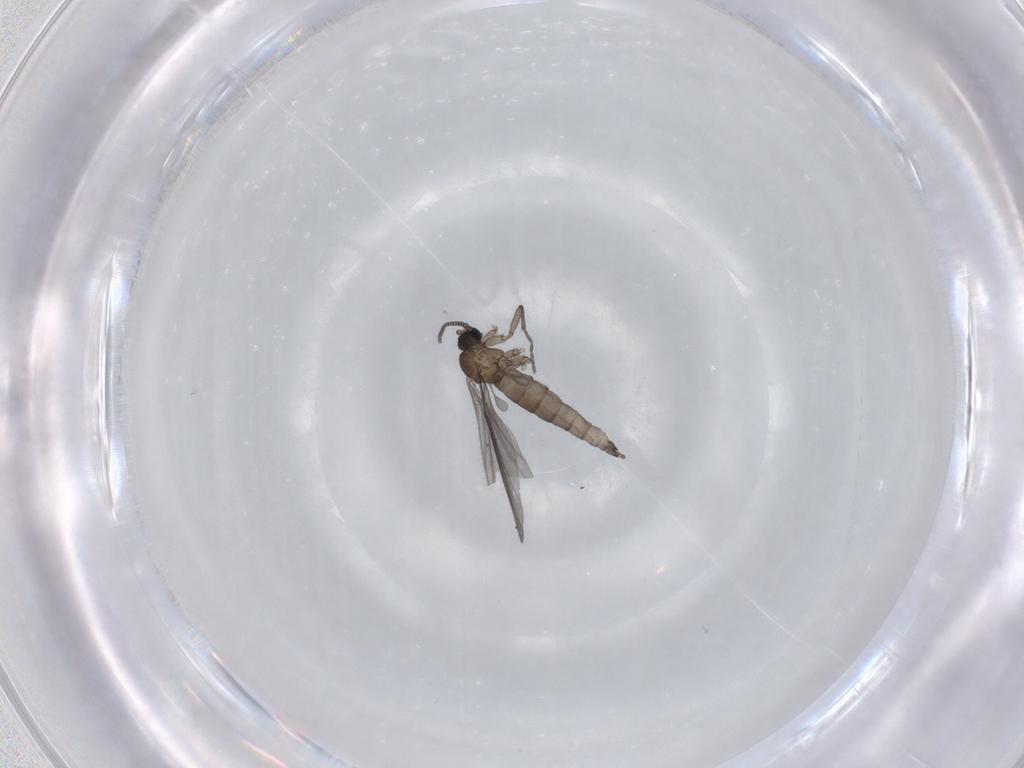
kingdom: Animalia
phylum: Arthropoda
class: Insecta
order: Diptera
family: Sciaridae
